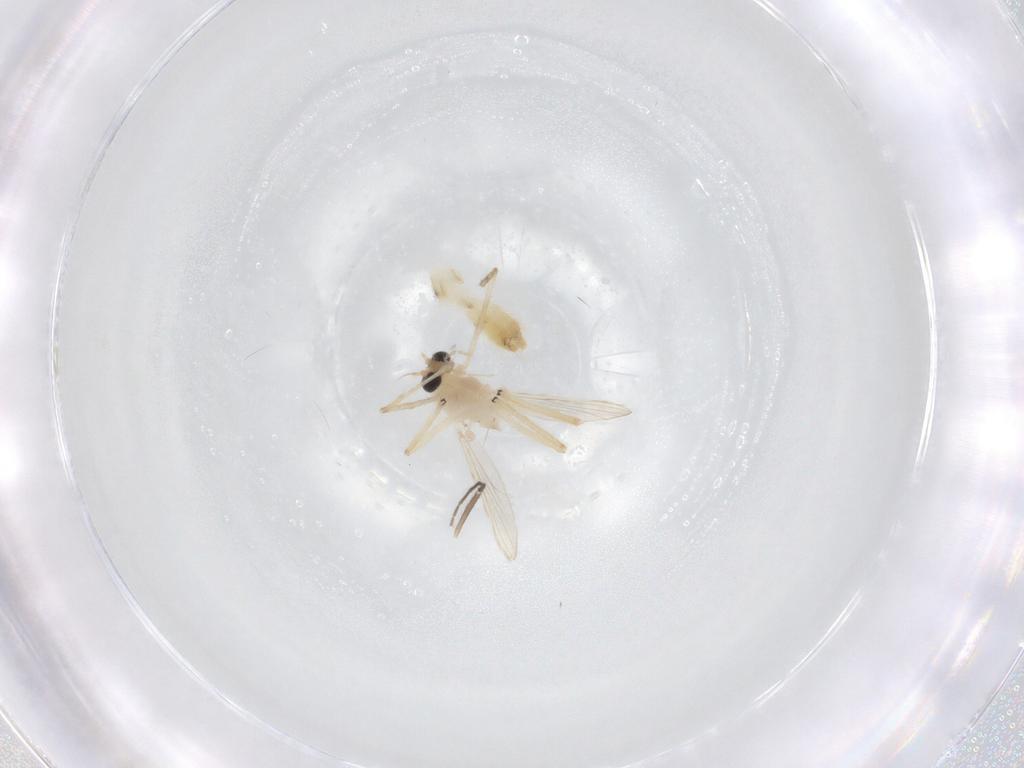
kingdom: Animalia
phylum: Arthropoda
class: Insecta
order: Diptera
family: Chironomidae
